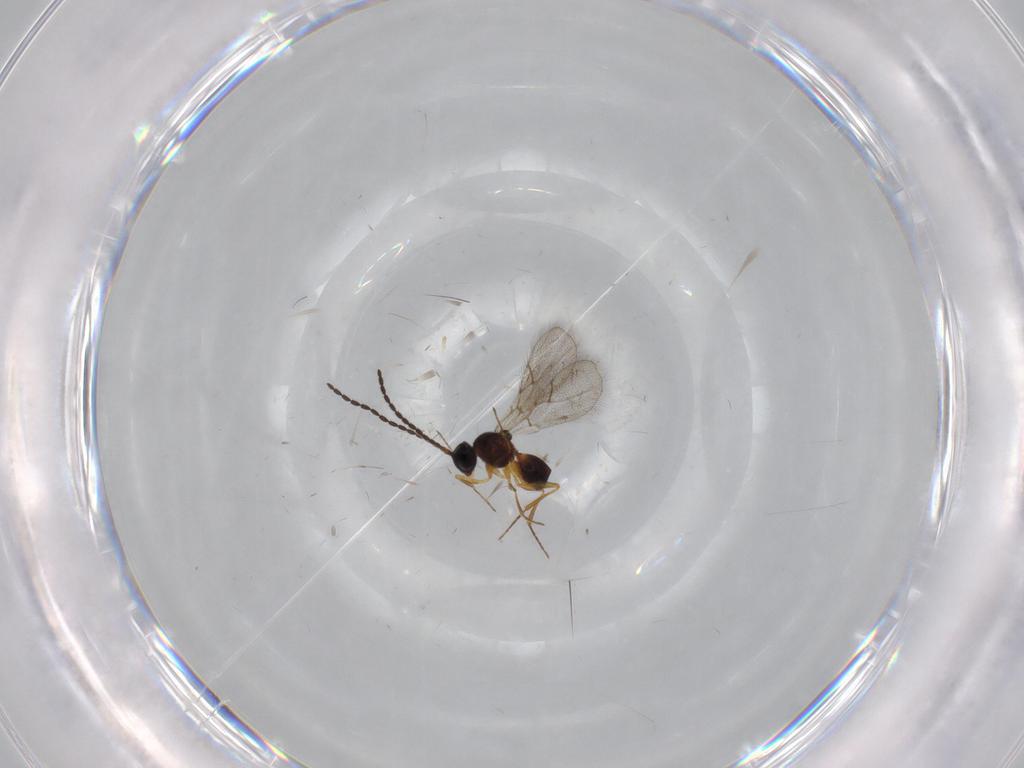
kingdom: Animalia
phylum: Arthropoda
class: Insecta
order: Hymenoptera
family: Figitidae
